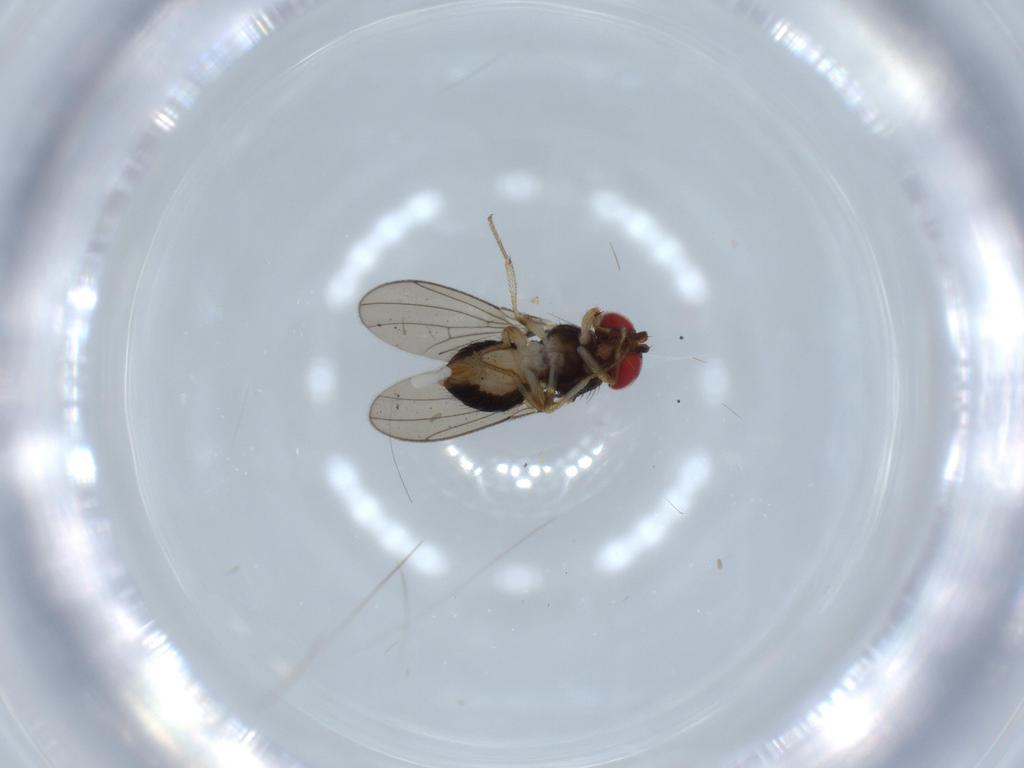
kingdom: Animalia
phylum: Arthropoda
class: Insecta
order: Diptera
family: Drosophilidae
